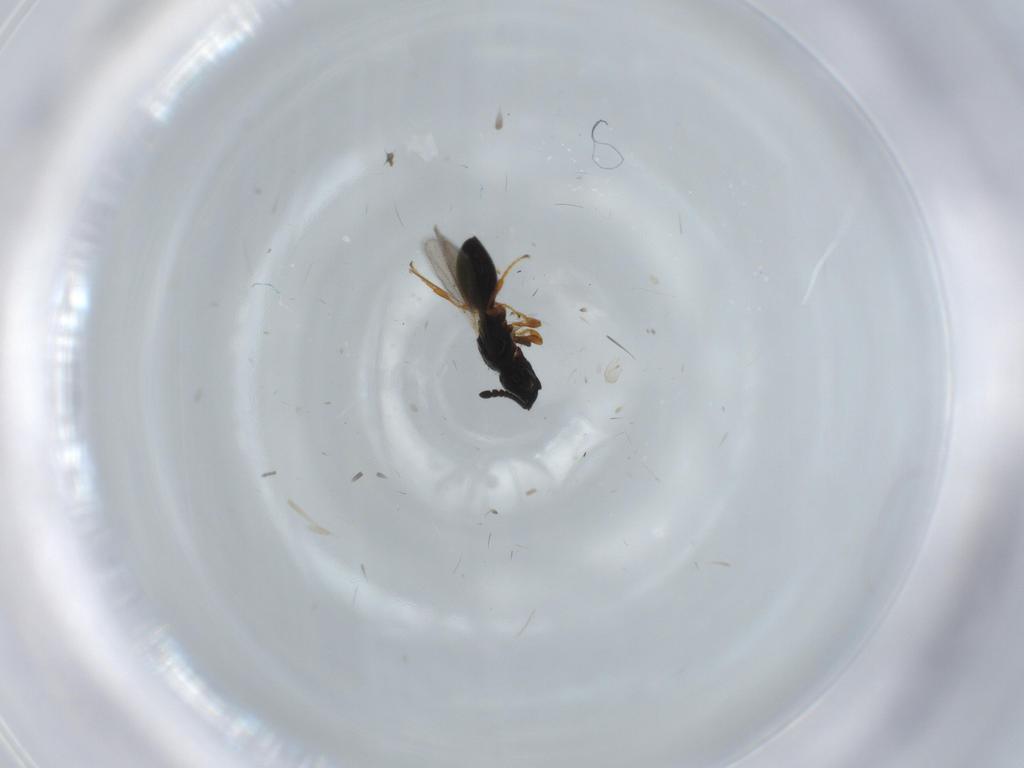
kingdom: Animalia
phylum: Arthropoda
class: Insecta
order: Hymenoptera
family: Diapriidae
